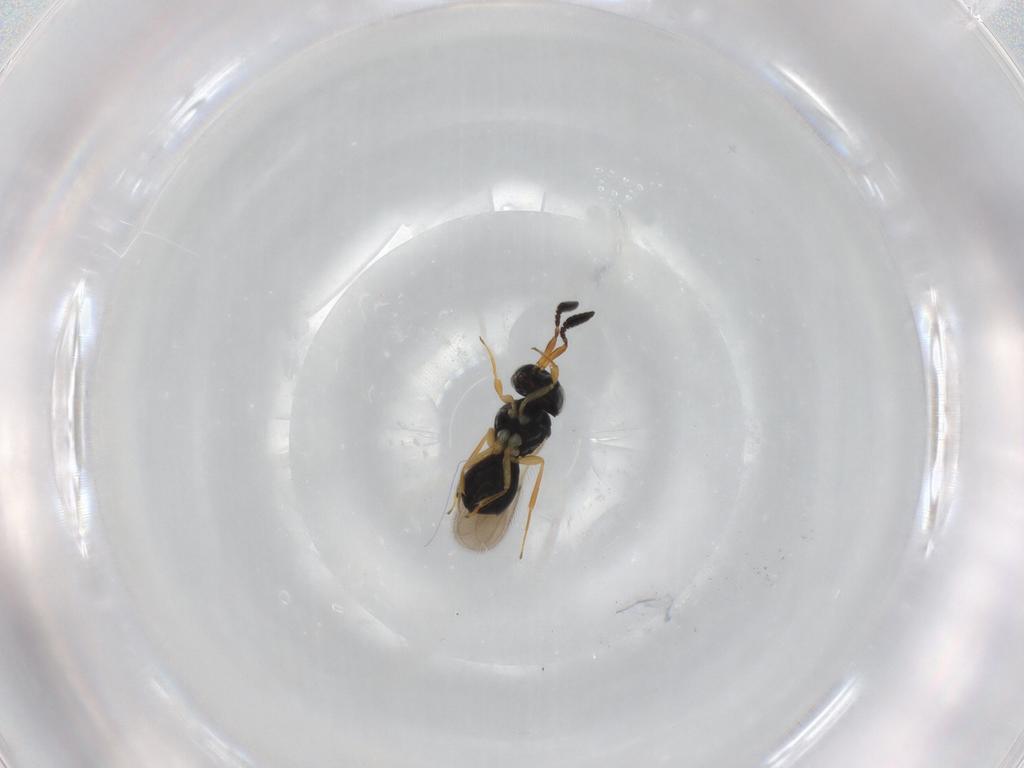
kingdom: Animalia
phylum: Arthropoda
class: Insecta
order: Hymenoptera
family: Scelionidae
